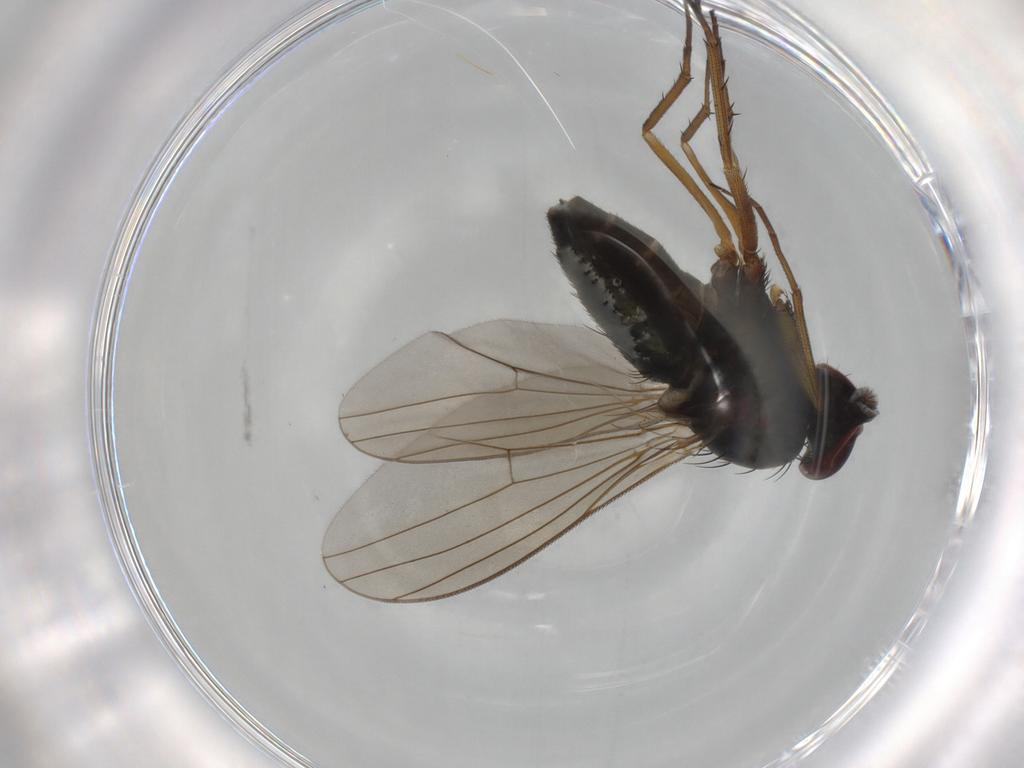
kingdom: Animalia
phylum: Arthropoda
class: Insecta
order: Diptera
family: Dolichopodidae
